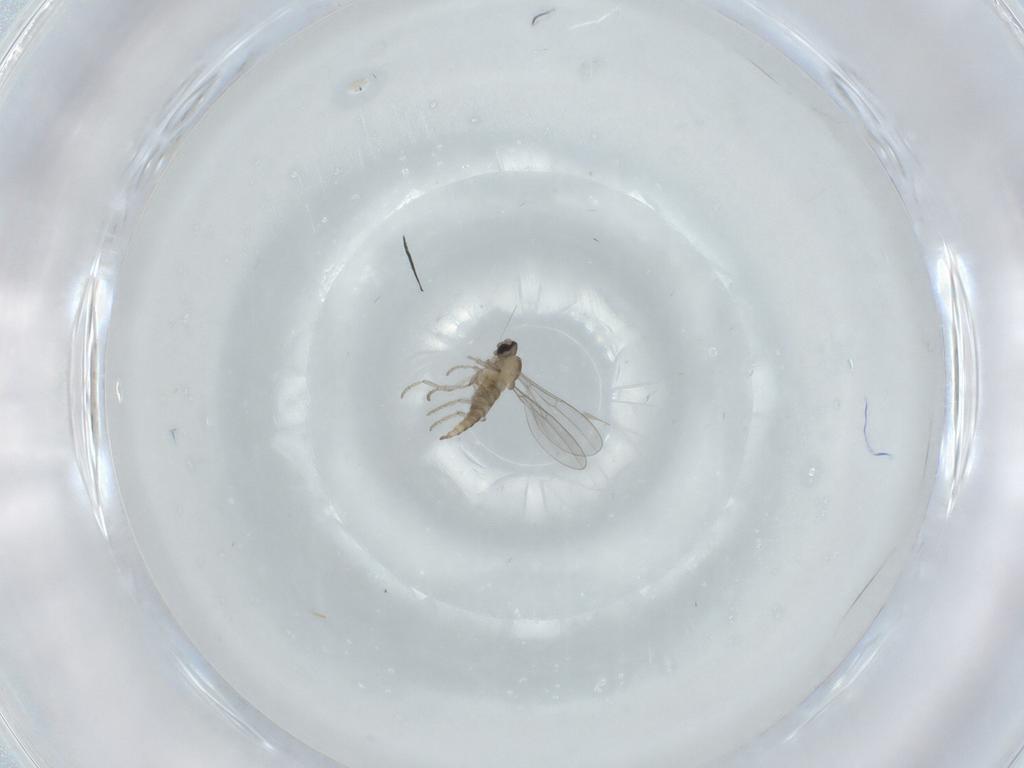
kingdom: Animalia
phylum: Arthropoda
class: Insecta
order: Diptera
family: Cecidomyiidae
